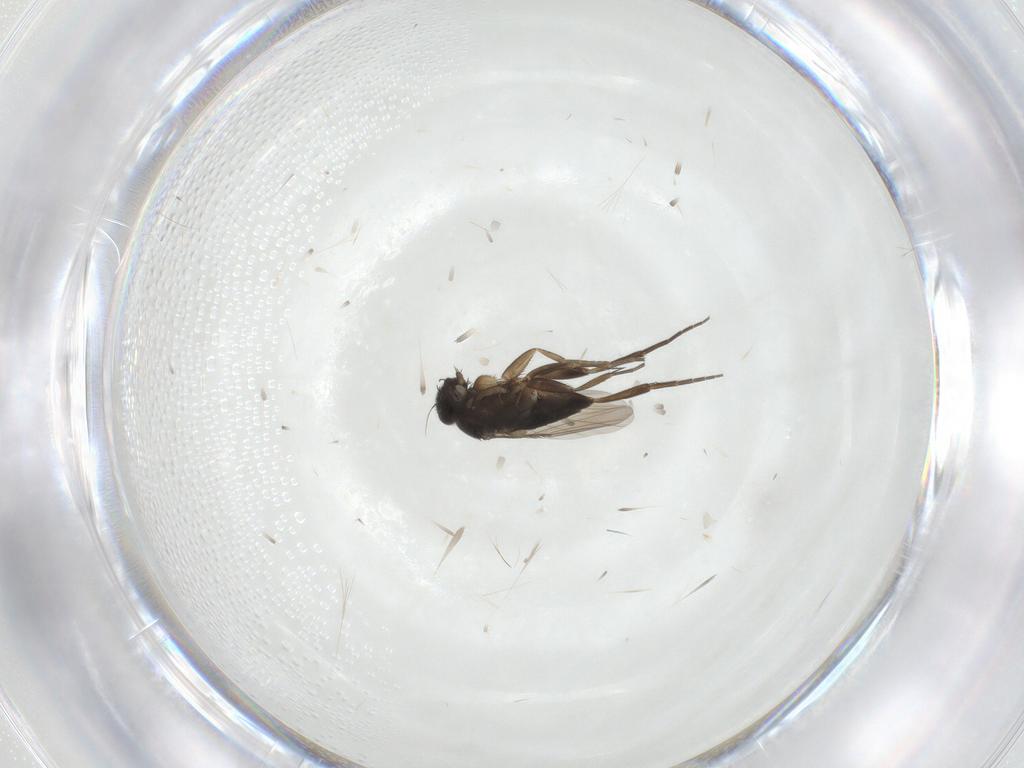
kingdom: Animalia
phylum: Arthropoda
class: Insecta
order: Diptera
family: Phoridae
